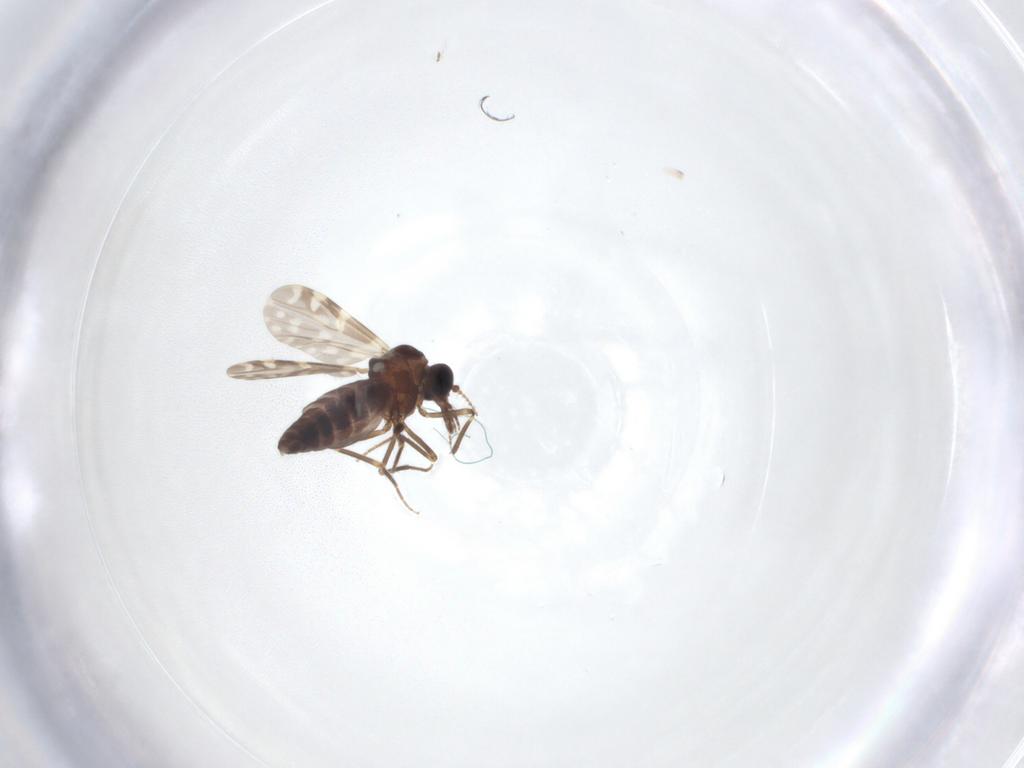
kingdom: Animalia
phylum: Arthropoda
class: Insecta
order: Diptera
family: Ceratopogonidae
